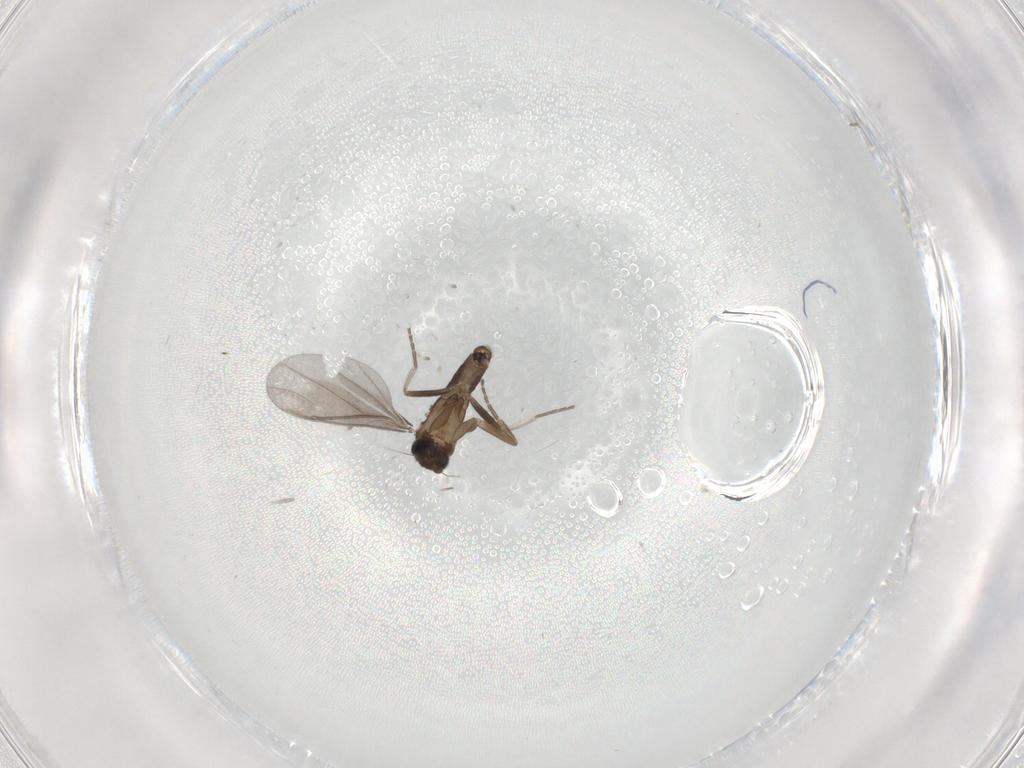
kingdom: Animalia
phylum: Arthropoda
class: Insecta
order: Diptera
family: Phoridae
